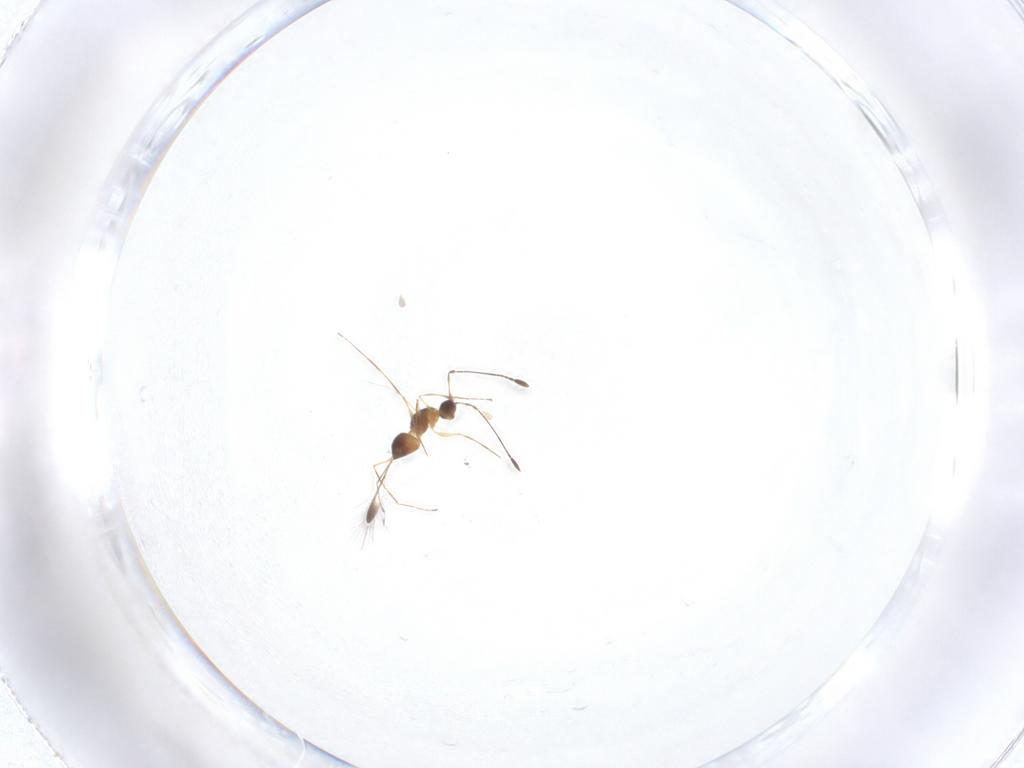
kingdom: Animalia
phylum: Arthropoda
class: Insecta
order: Hymenoptera
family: Mymaridae
